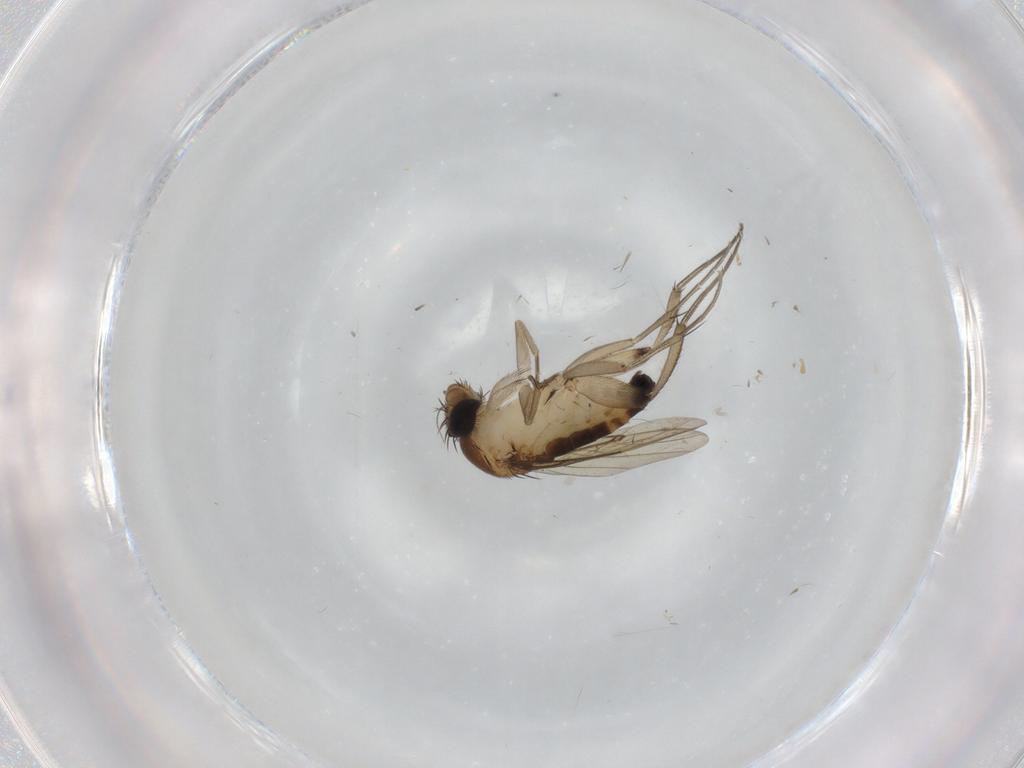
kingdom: Animalia
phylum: Arthropoda
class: Insecta
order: Diptera
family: Phoridae
